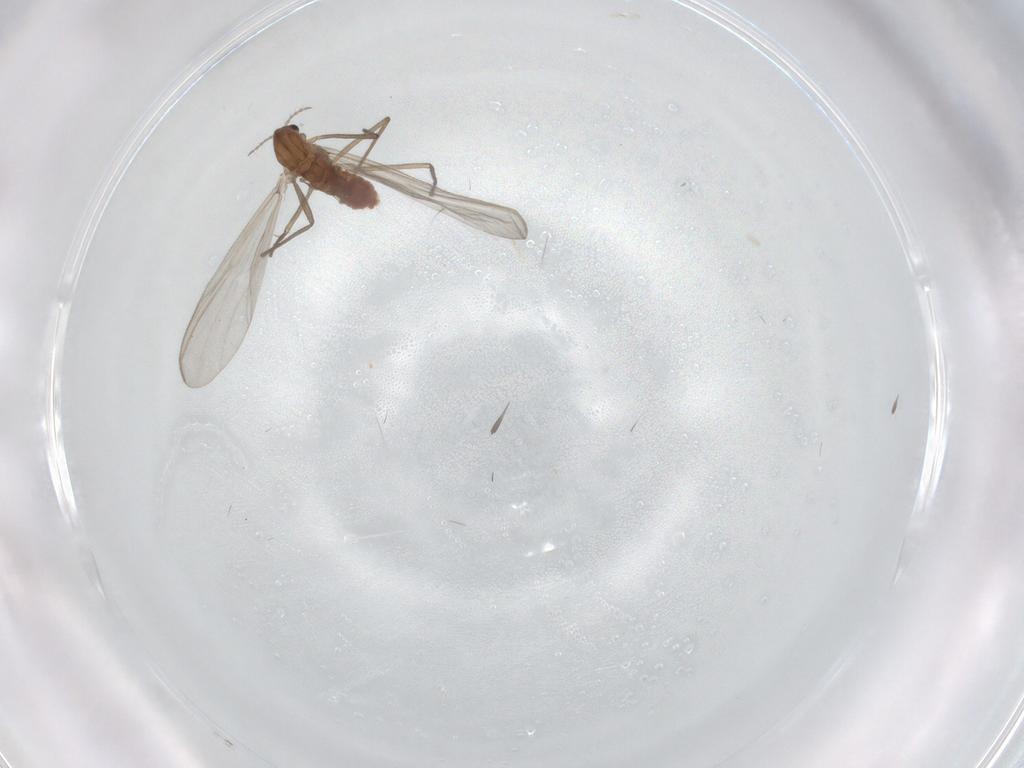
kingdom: Animalia
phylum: Arthropoda
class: Insecta
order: Diptera
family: Chironomidae
